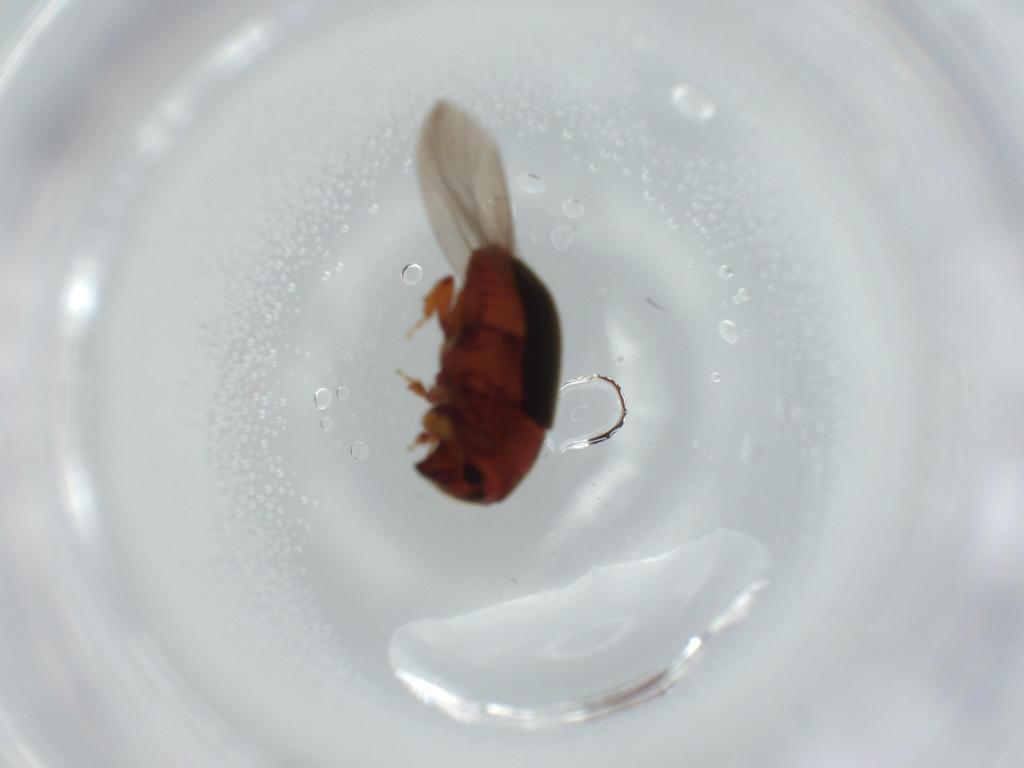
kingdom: Animalia
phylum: Arthropoda
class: Insecta
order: Coleoptera
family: Curculionidae
